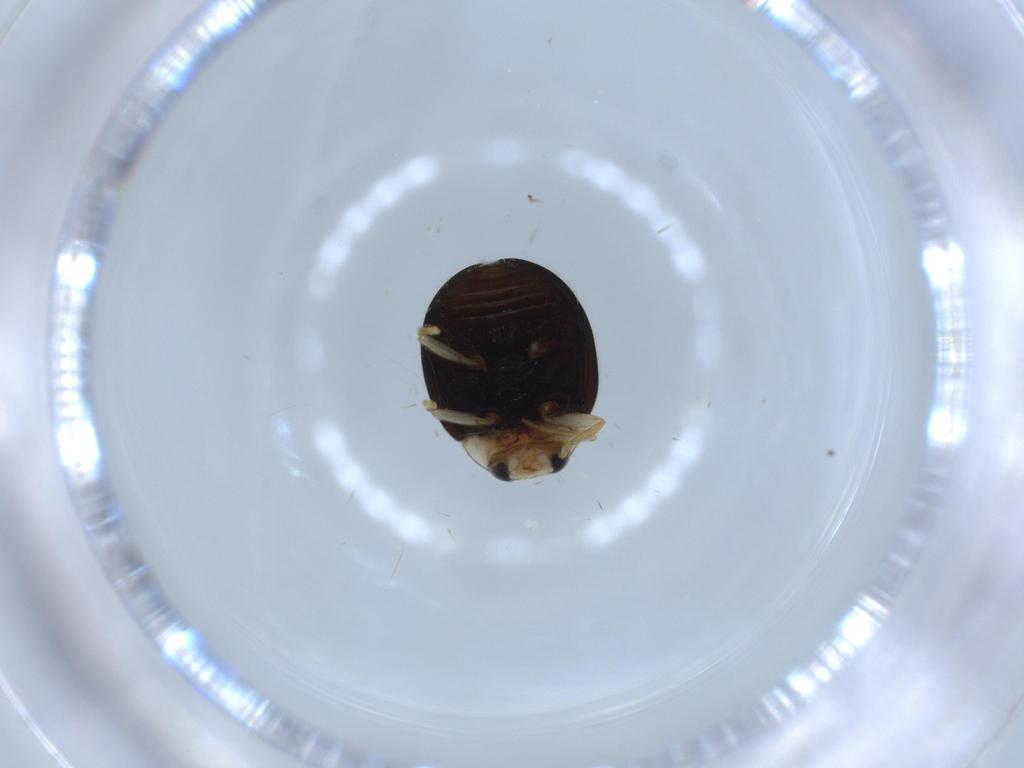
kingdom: Animalia
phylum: Arthropoda
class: Insecta
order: Coleoptera
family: Coccinellidae
